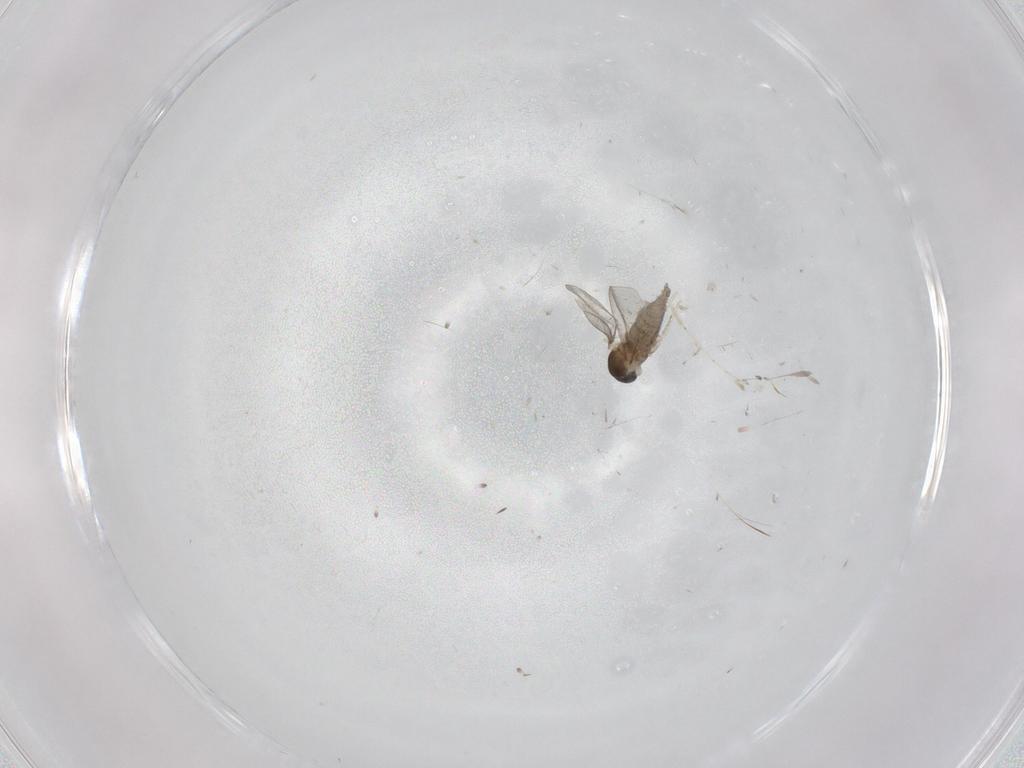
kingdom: Animalia
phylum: Arthropoda
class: Insecta
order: Diptera
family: Cecidomyiidae
